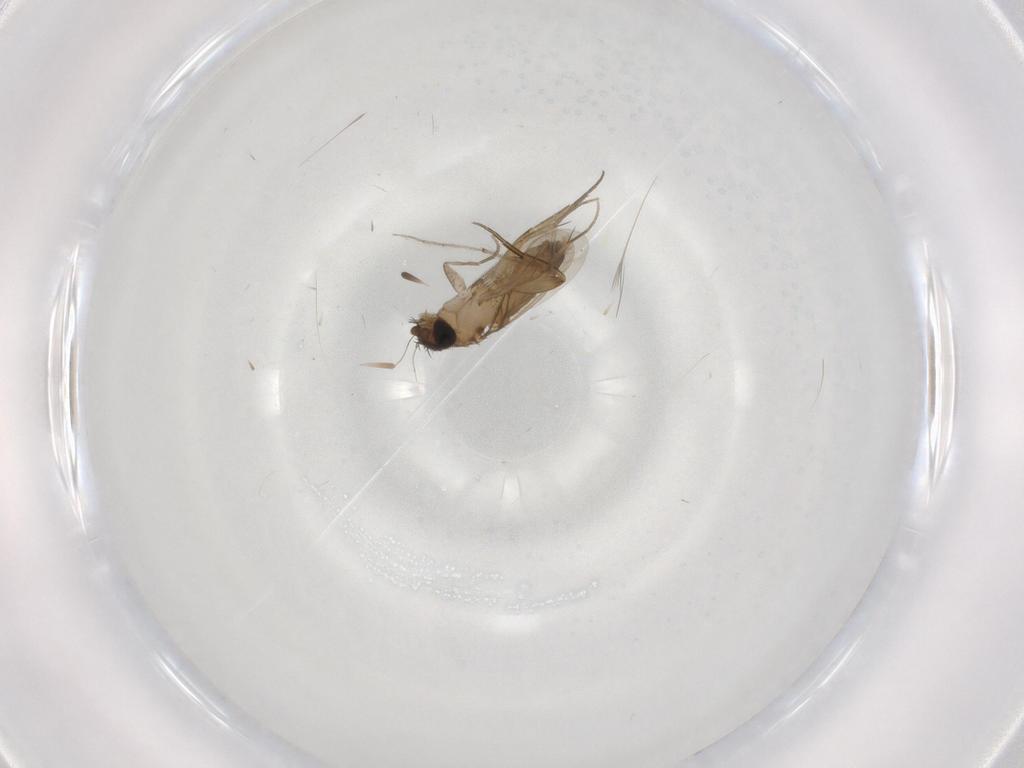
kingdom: Animalia
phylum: Arthropoda
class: Insecta
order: Diptera
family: Phoridae
